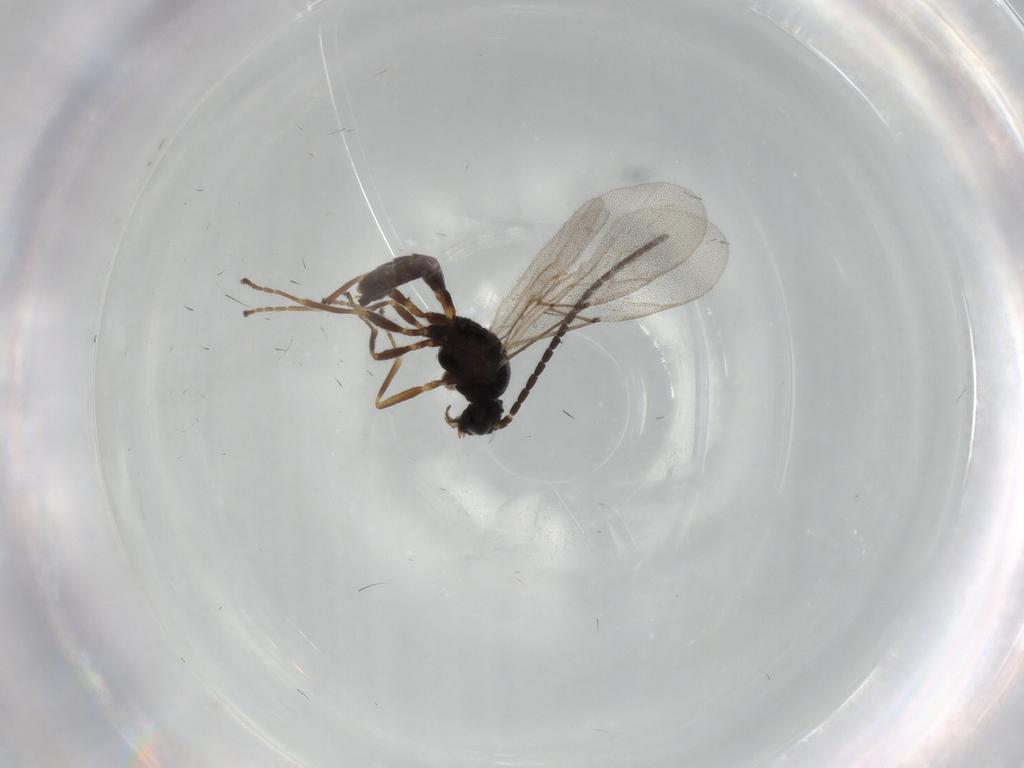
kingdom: Animalia
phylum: Arthropoda
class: Insecta
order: Hymenoptera
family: Braconidae
